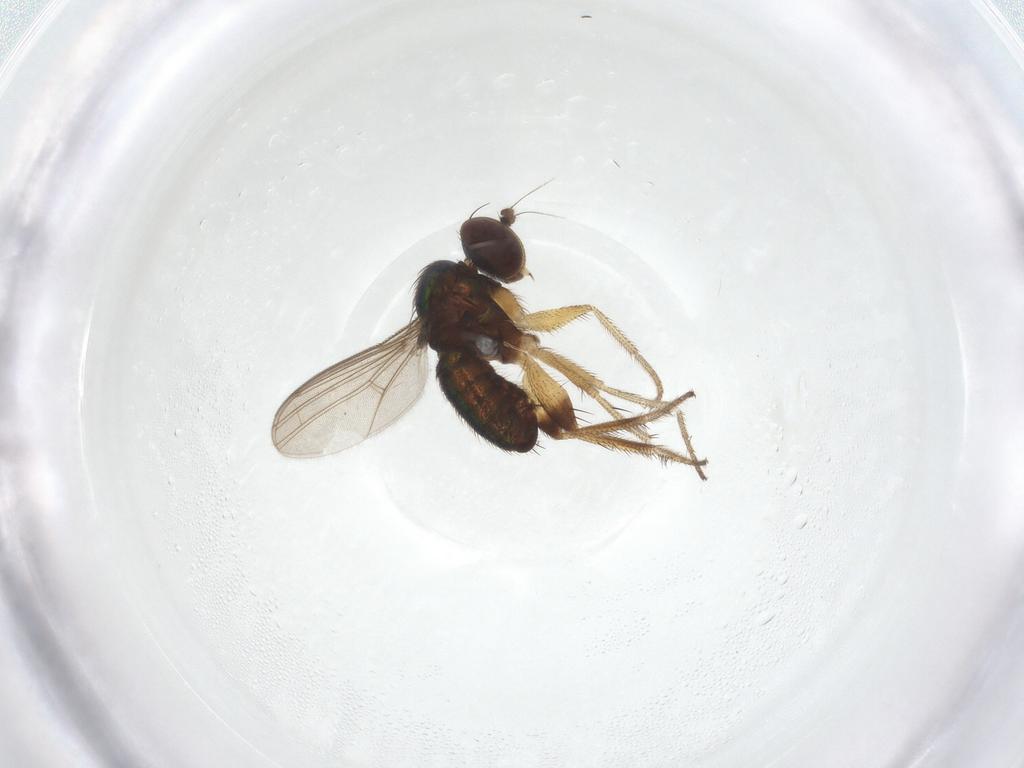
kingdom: Animalia
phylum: Arthropoda
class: Insecta
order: Diptera
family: Dolichopodidae
